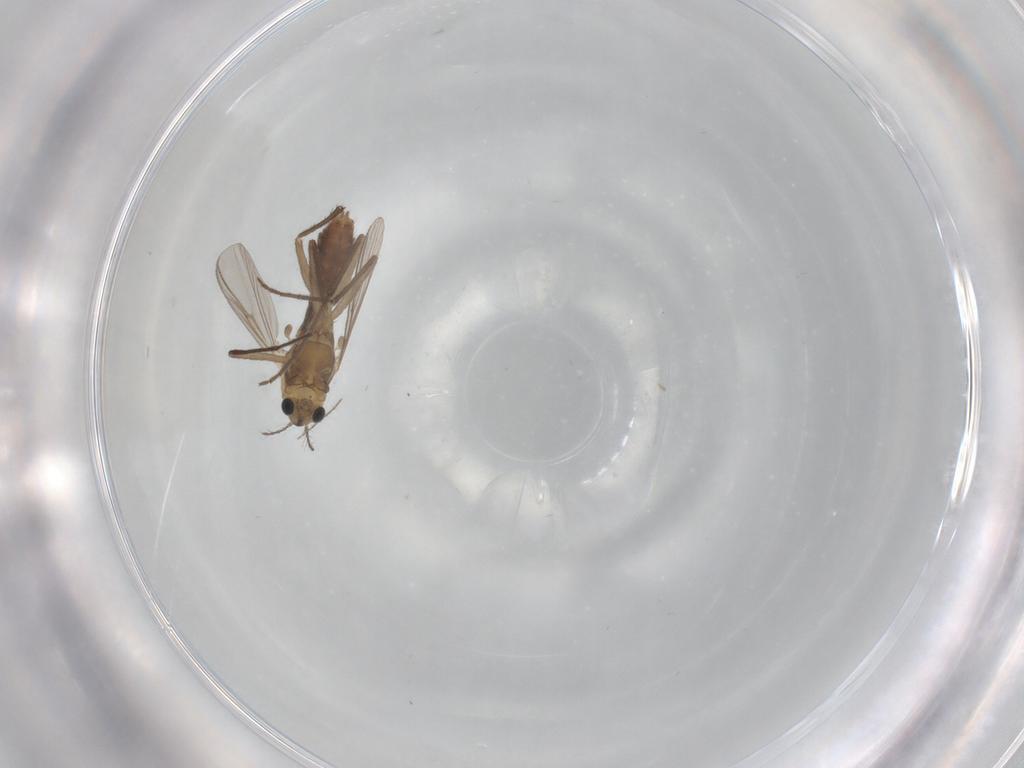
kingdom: Animalia
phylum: Arthropoda
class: Insecta
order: Diptera
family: Chironomidae
